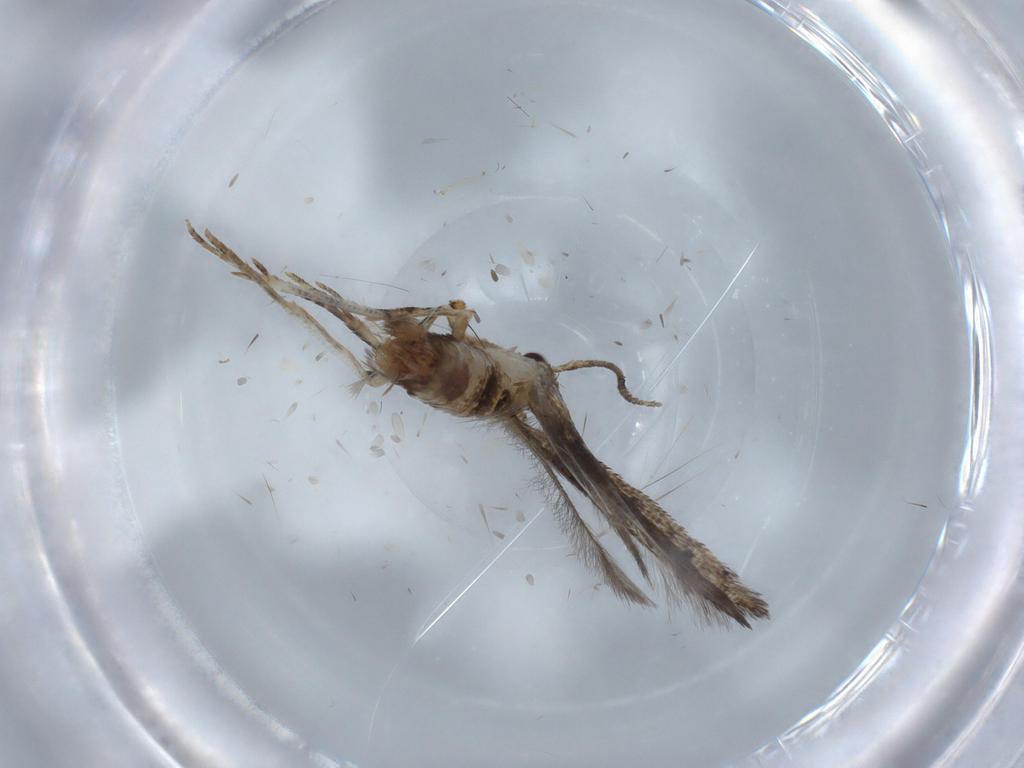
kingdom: Animalia
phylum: Arthropoda
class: Insecta
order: Lepidoptera
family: Crambidae
